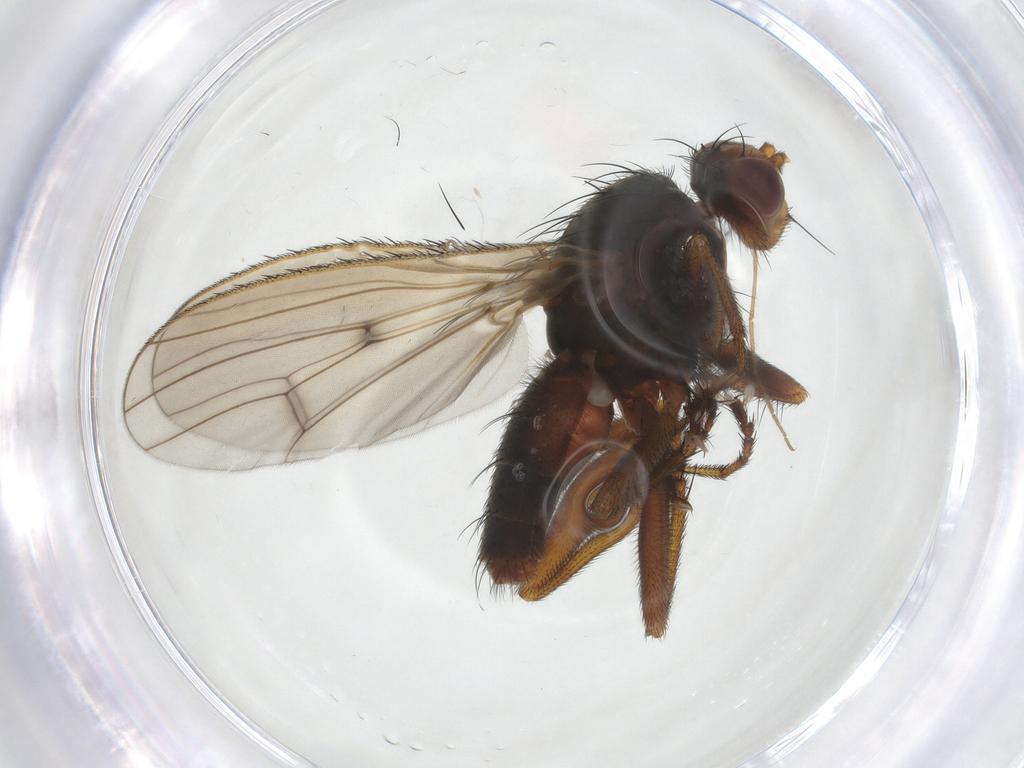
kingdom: Animalia
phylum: Arthropoda
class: Insecta
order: Diptera
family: Heleomyzidae
